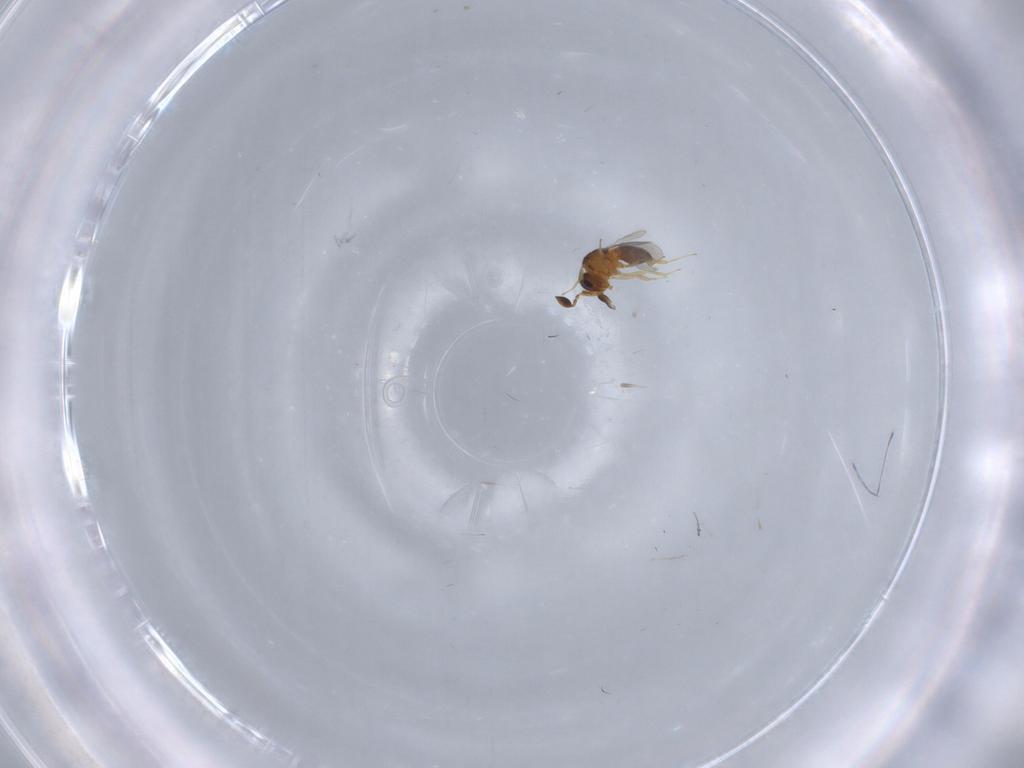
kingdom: Animalia
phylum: Arthropoda
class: Insecta
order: Hymenoptera
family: Scelionidae
